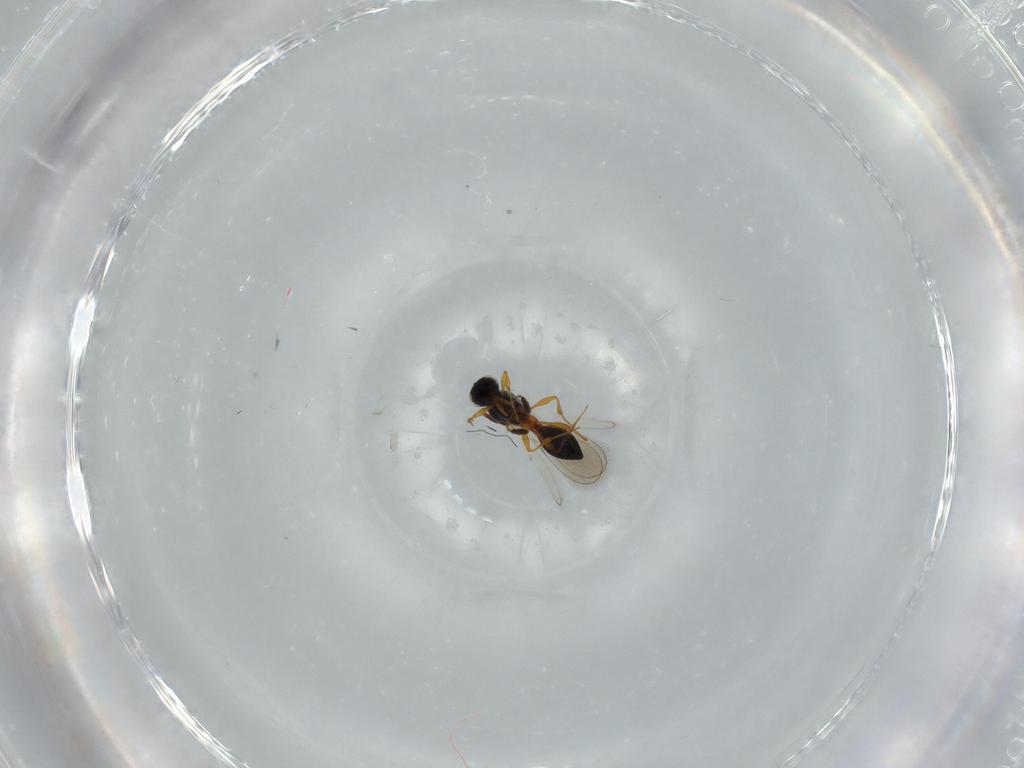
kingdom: Animalia
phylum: Arthropoda
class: Insecta
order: Hymenoptera
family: Platygastridae
